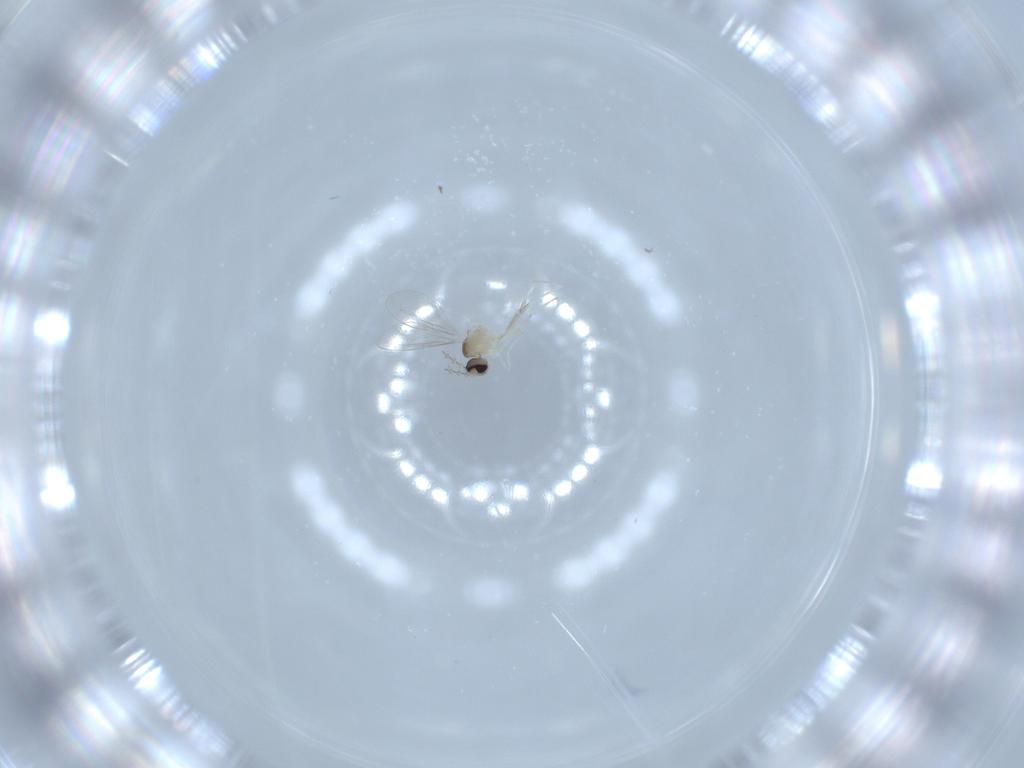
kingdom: Animalia
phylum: Arthropoda
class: Insecta
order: Diptera
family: Cecidomyiidae
